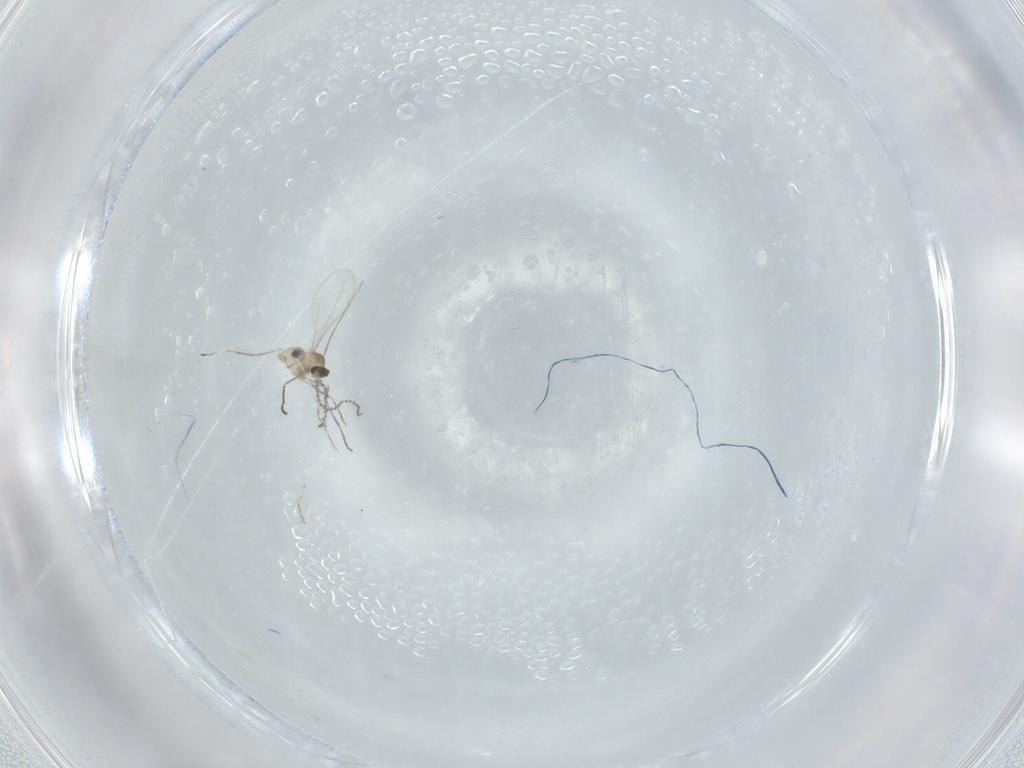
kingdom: Animalia
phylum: Arthropoda
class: Insecta
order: Diptera
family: Cecidomyiidae
